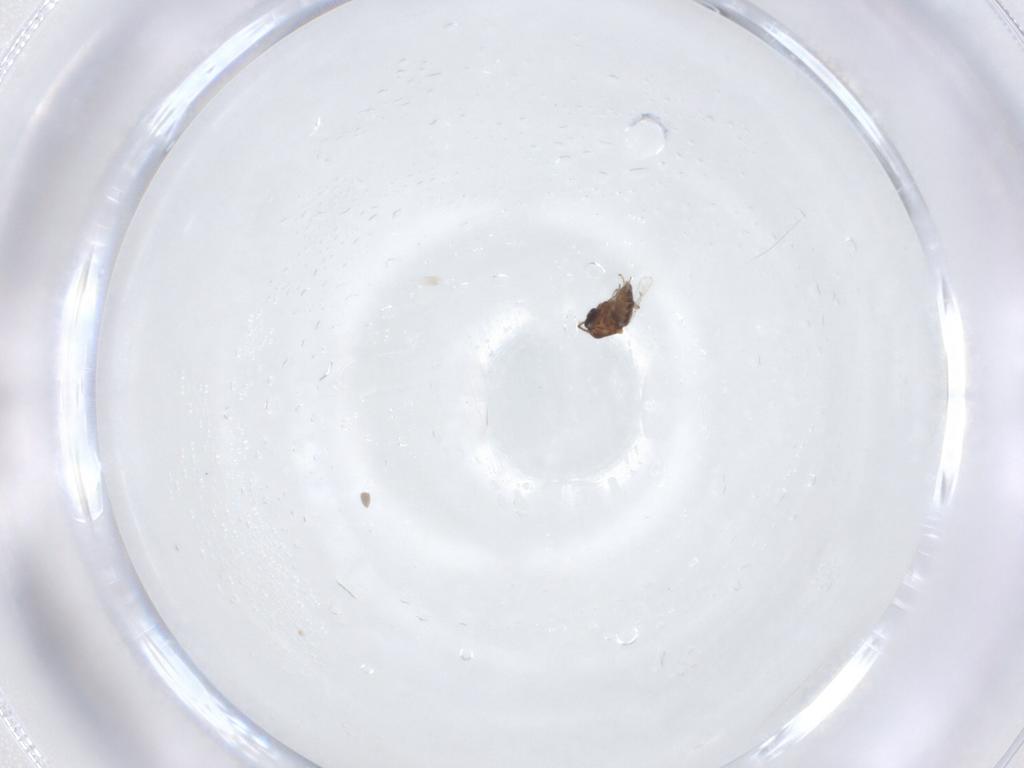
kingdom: Animalia
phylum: Arthropoda
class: Insecta
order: Diptera
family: Ceratopogonidae
